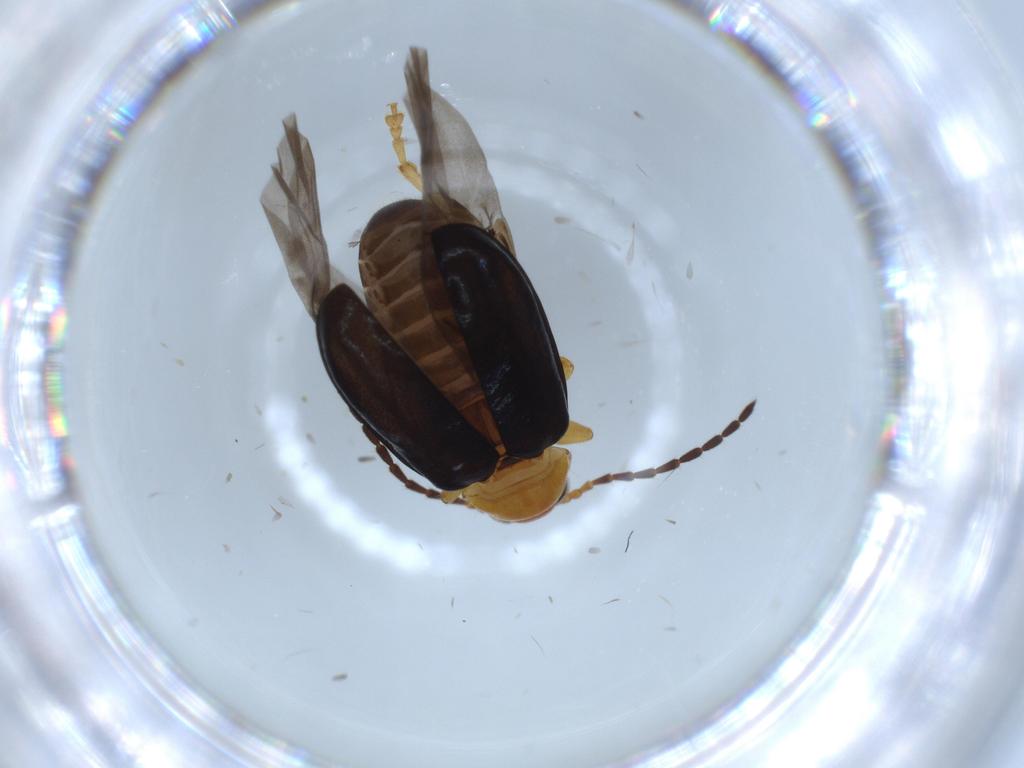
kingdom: Animalia
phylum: Arthropoda
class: Insecta
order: Coleoptera
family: Chrysomelidae
